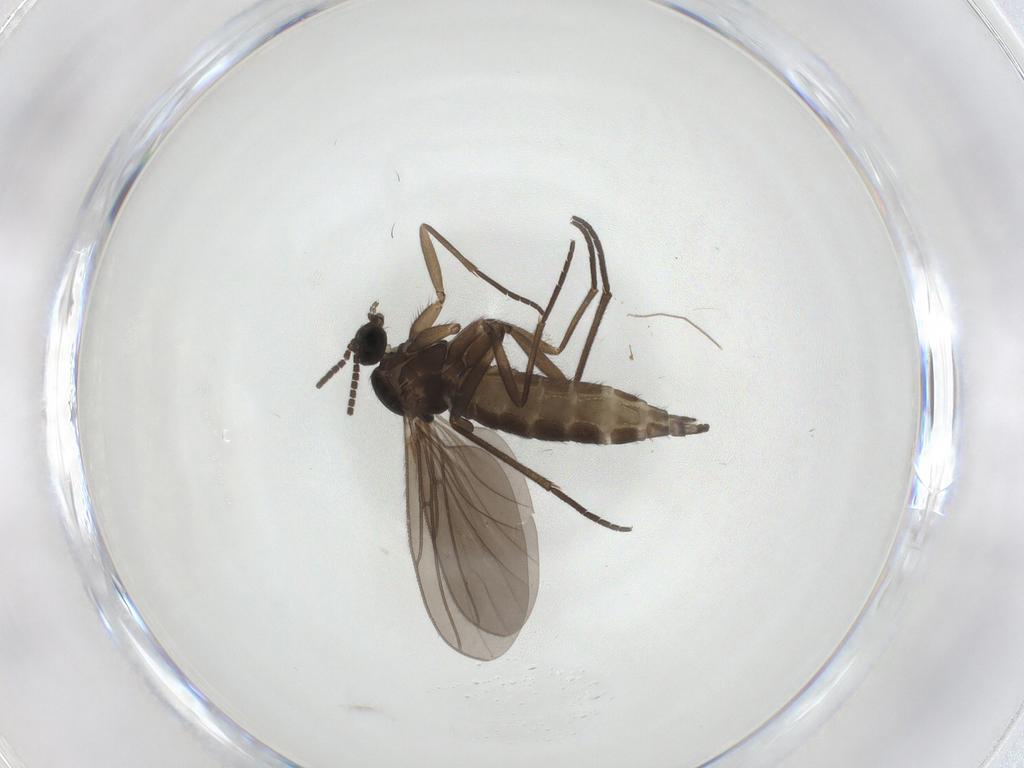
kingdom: Animalia
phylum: Arthropoda
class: Insecta
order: Diptera
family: Sciaridae
